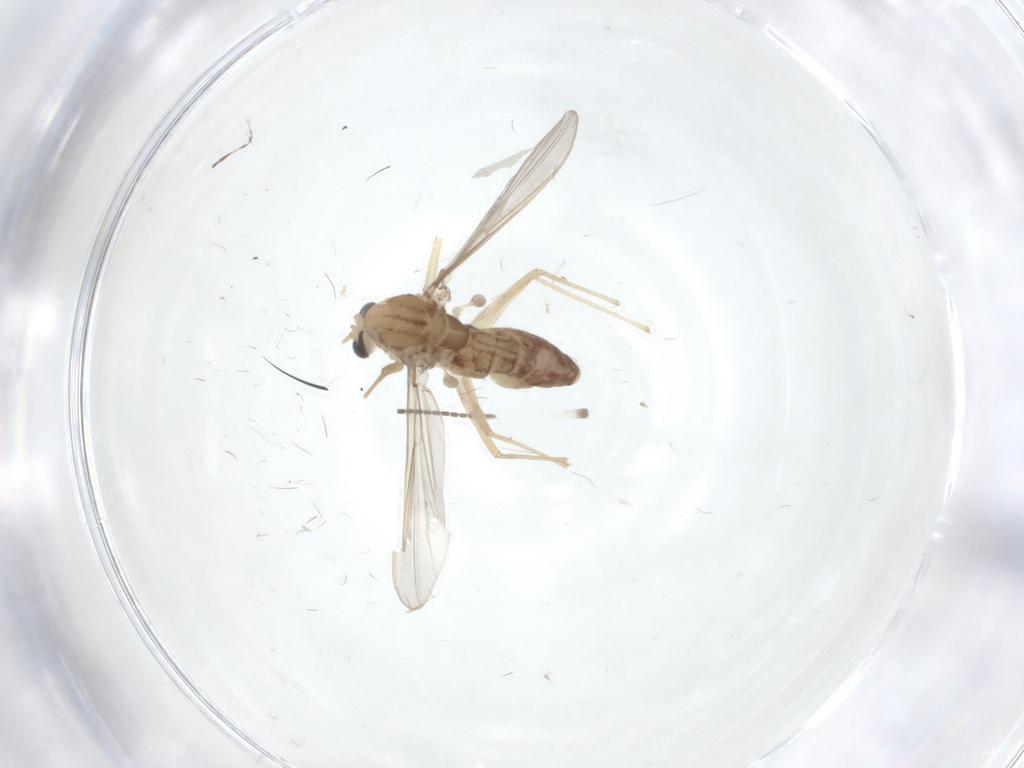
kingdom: Animalia
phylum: Arthropoda
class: Insecta
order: Diptera
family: Chironomidae
